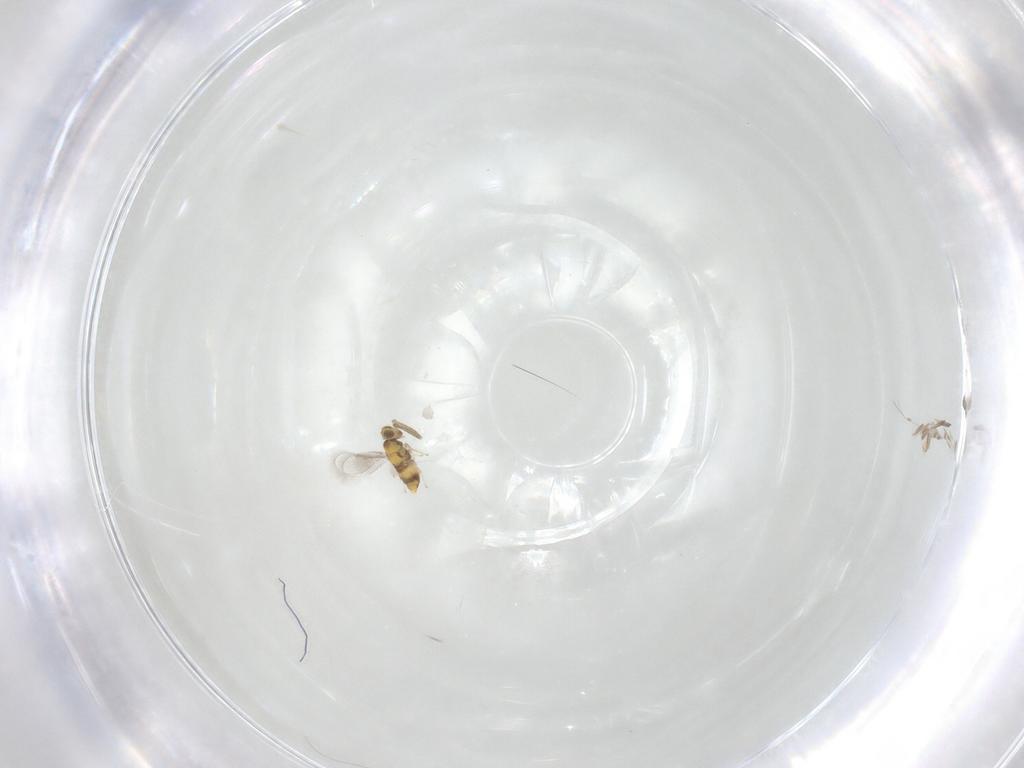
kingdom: Animalia
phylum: Arthropoda
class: Insecta
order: Hymenoptera
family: Aphelinidae
